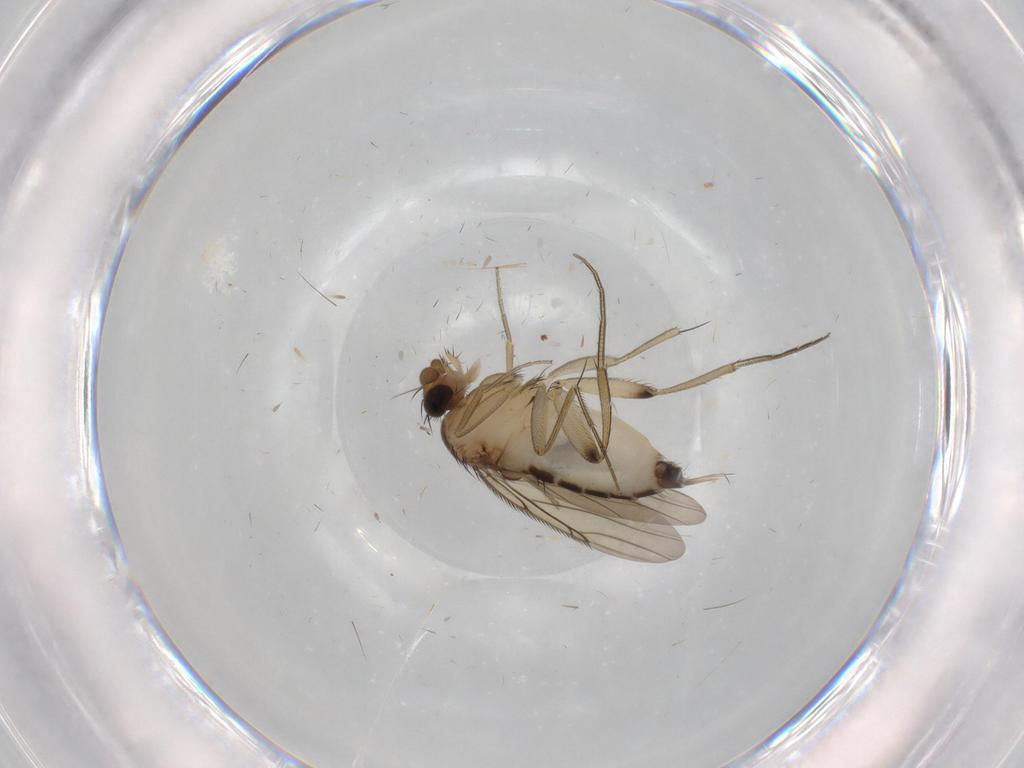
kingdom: Animalia
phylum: Arthropoda
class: Insecta
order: Diptera
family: Phoridae
